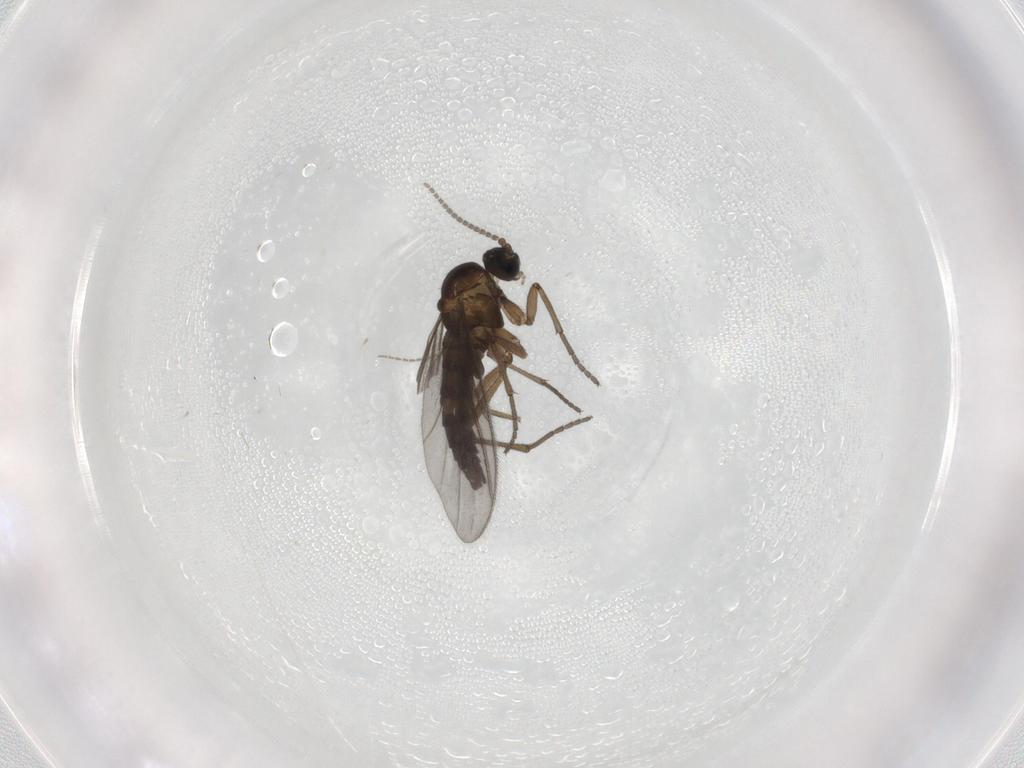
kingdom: Animalia
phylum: Arthropoda
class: Insecta
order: Diptera
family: Sciaridae
